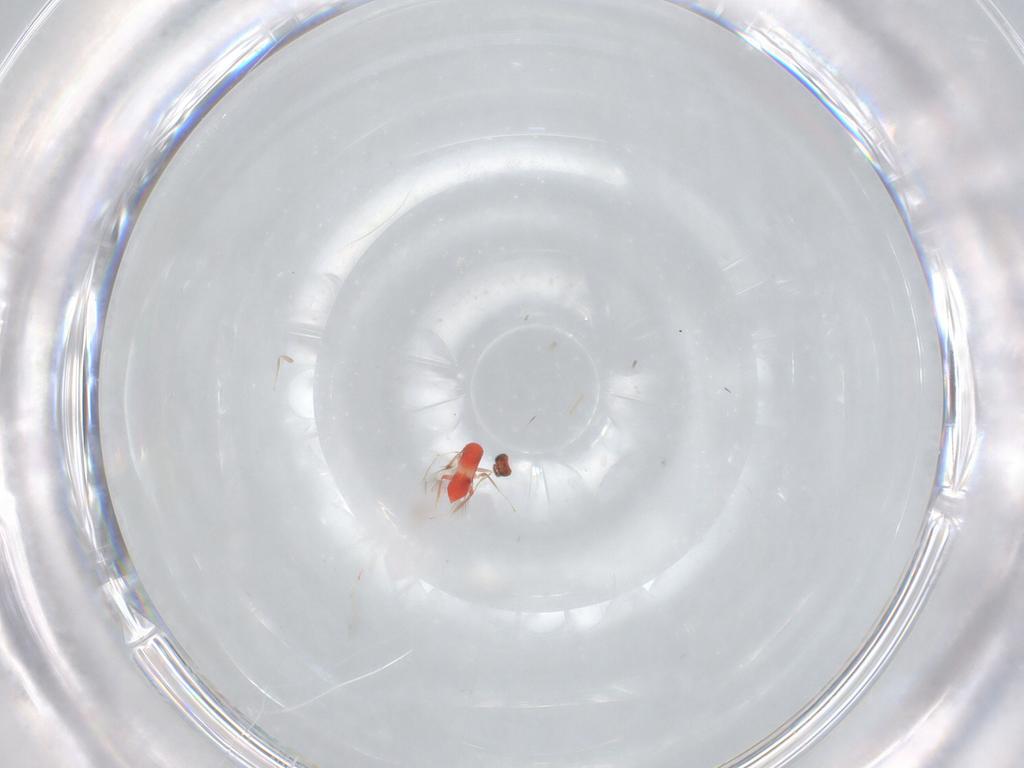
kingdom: Animalia
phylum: Arthropoda
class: Insecta
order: Hymenoptera
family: Trichogrammatidae
